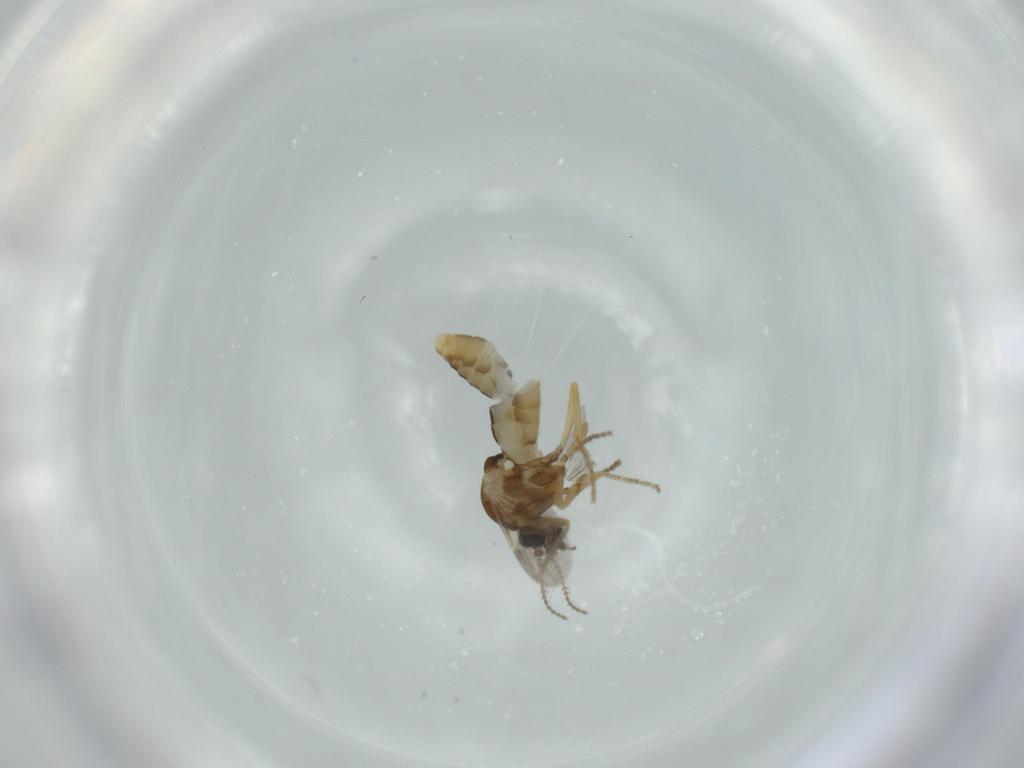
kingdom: Animalia
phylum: Arthropoda
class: Insecta
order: Diptera
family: Ceratopogonidae
